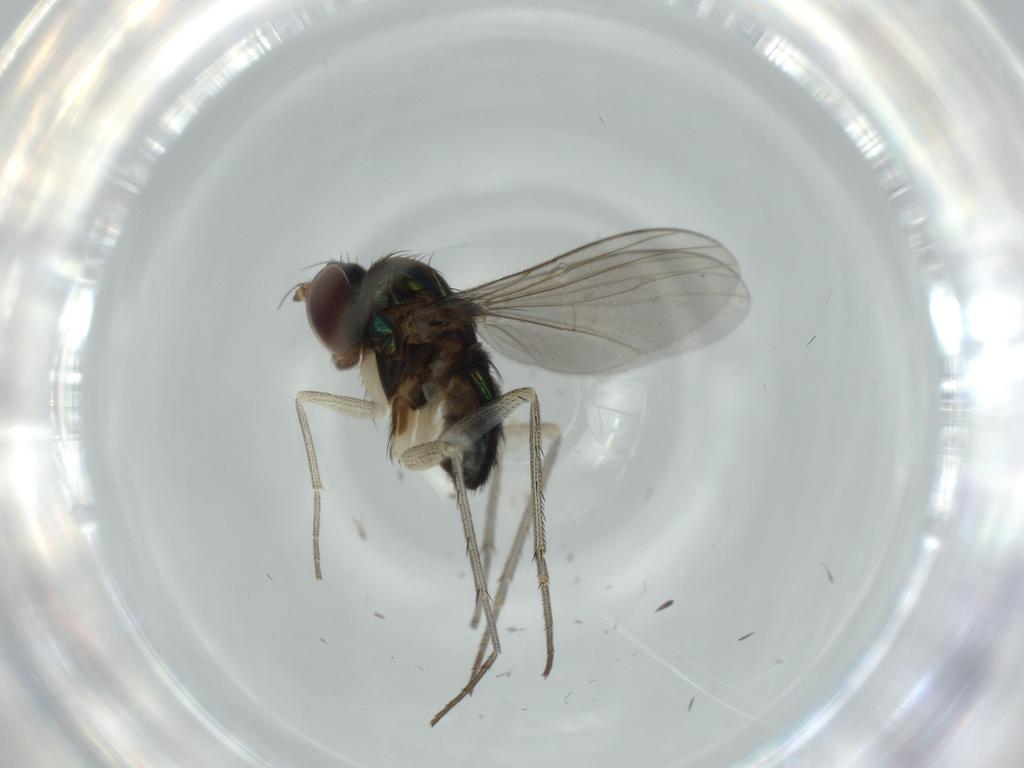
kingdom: Animalia
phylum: Arthropoda
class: Insecta
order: Diptera
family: Dolichopodidae
